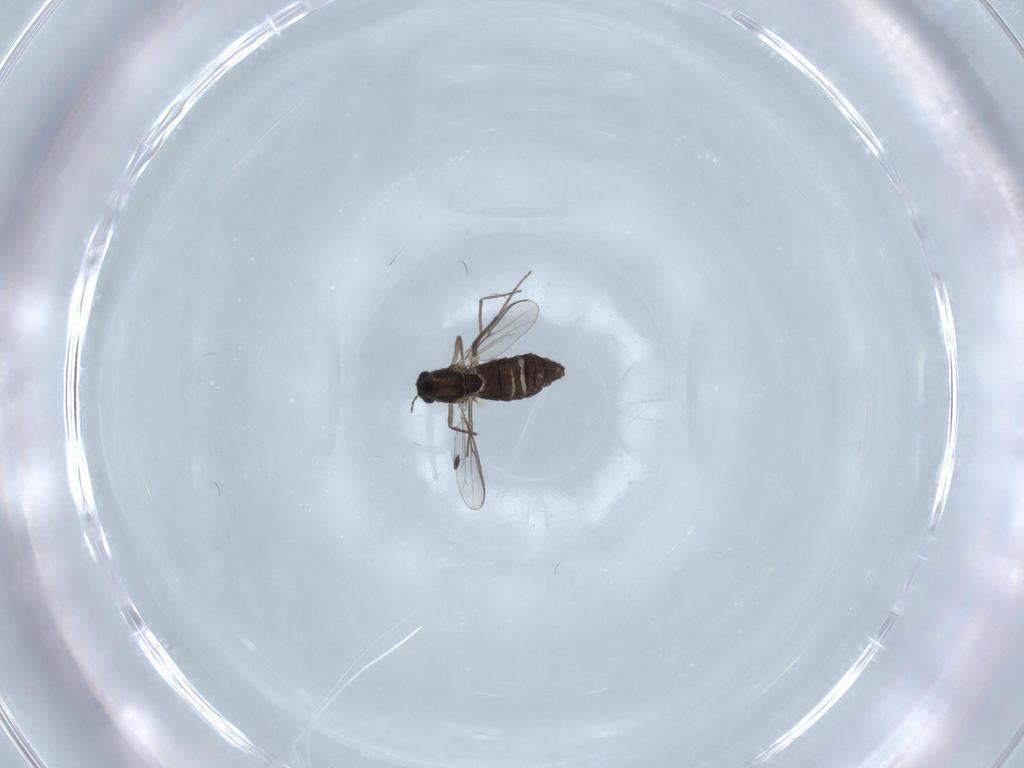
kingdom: Animalia
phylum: Arthropoda
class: Insecta
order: Diptera
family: Chironomidae
